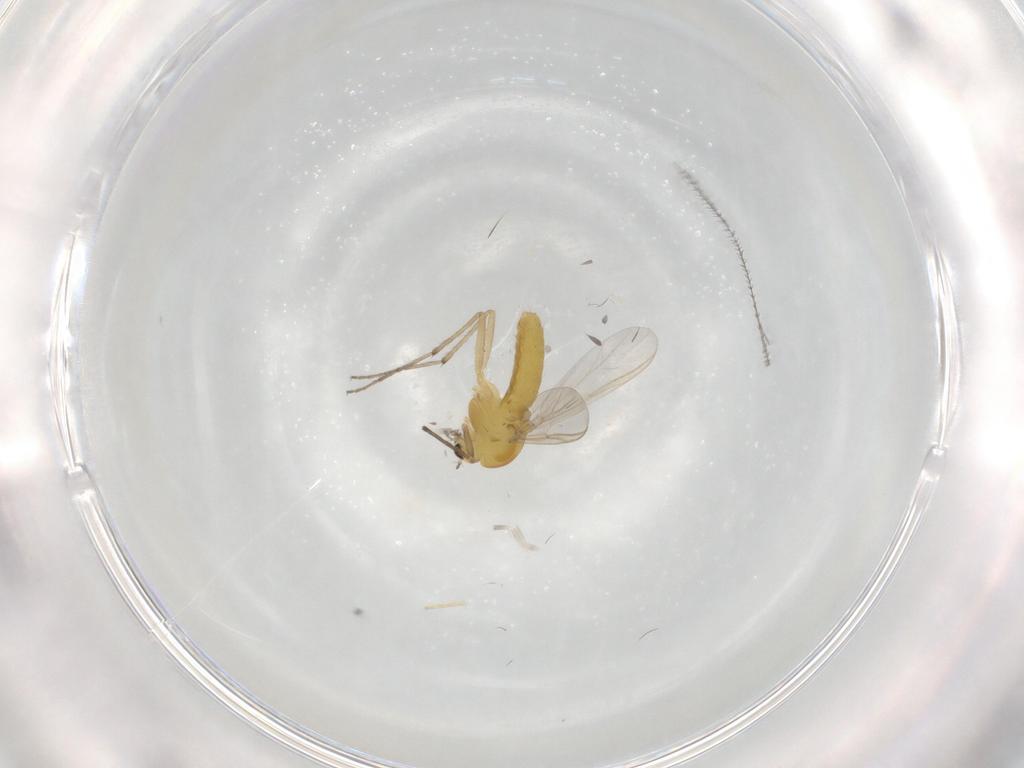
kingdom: Animalia
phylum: Arthropoda
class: Insecta
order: Diptera
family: Chironomidae
